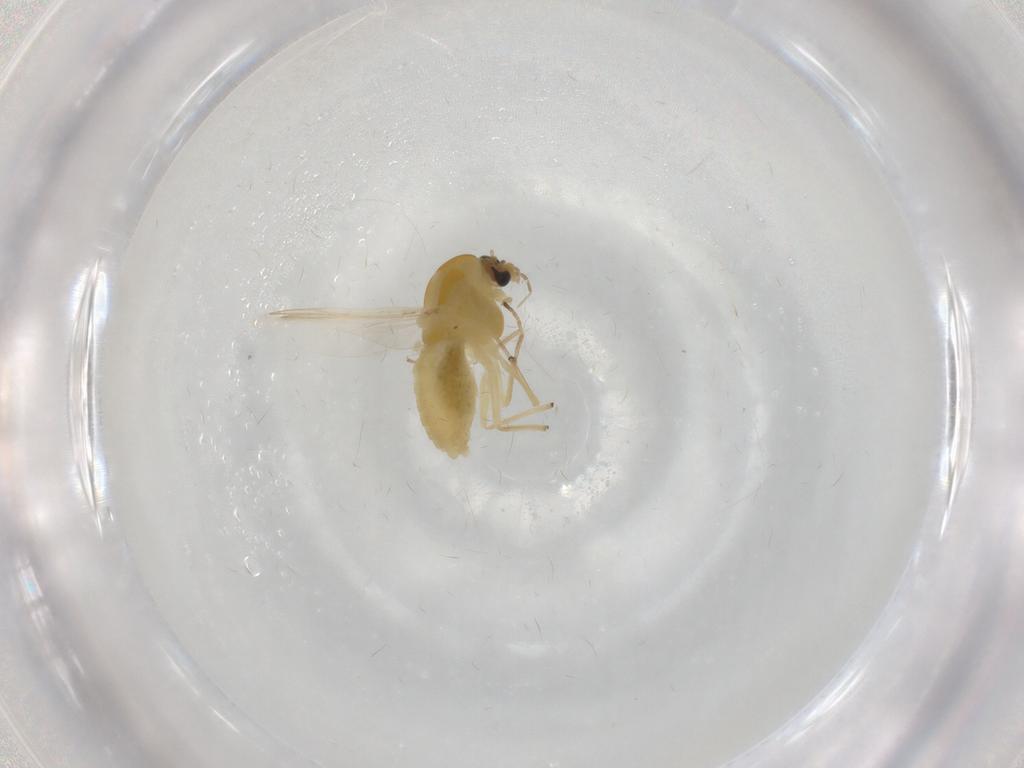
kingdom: Animalia
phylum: Arthropoda
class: Insecta
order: Diptera
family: Chironomidae
